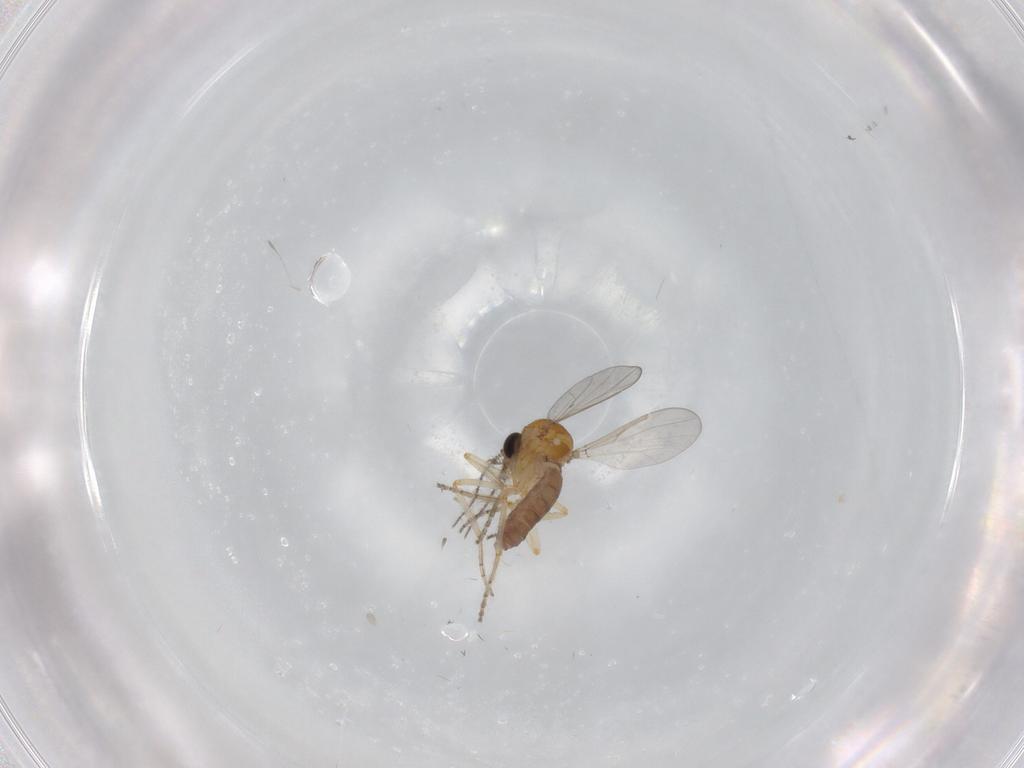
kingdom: Animalia
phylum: Arthropoda
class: Insecta
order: Diptera
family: Ceratopogonidae
